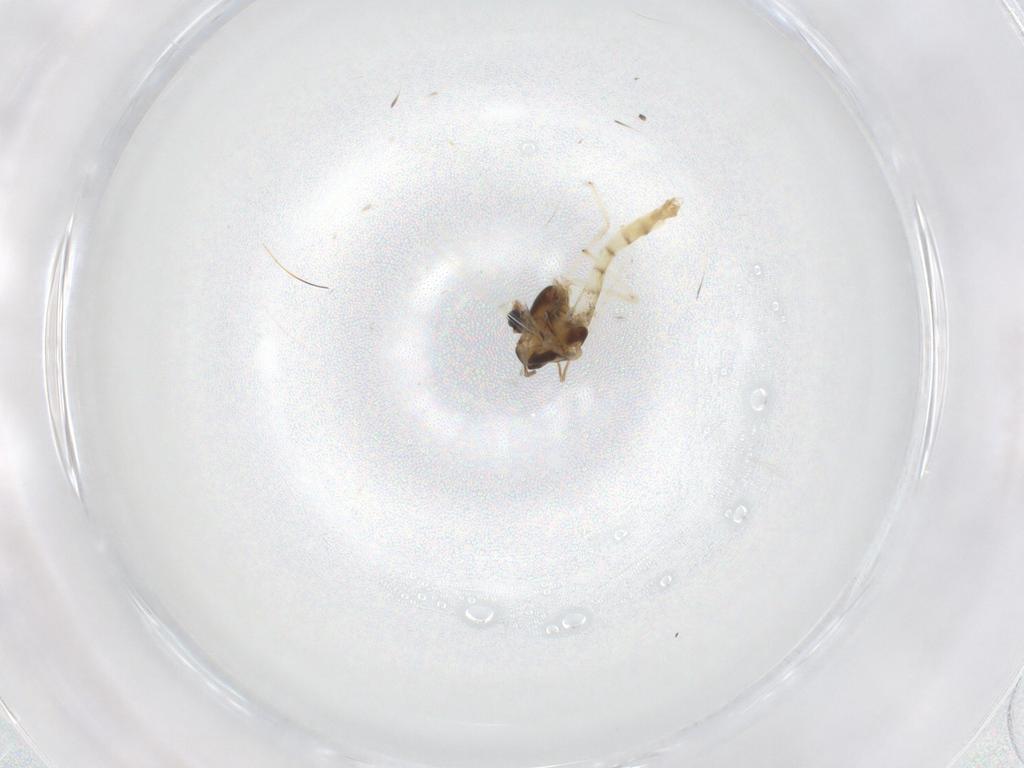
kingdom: Animalia
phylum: Arthropoda
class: Insecta
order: Diptera
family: Chironomidae
